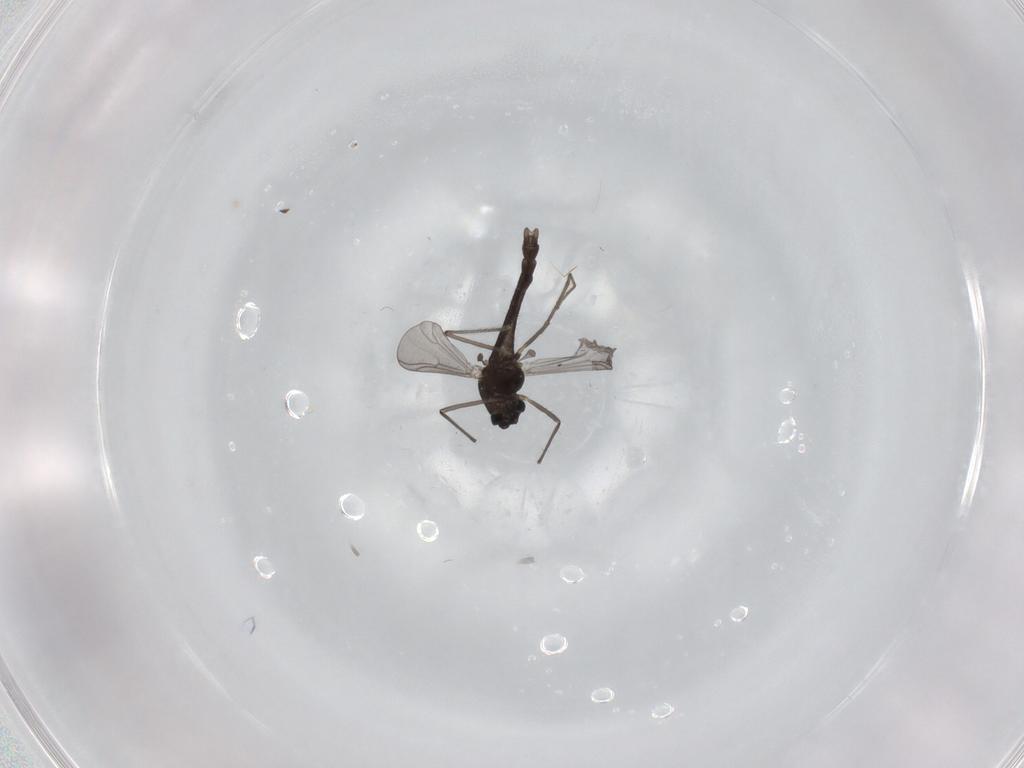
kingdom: Animalia
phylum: Arthropoda
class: Insecta
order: Diptera
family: Chironomidae
